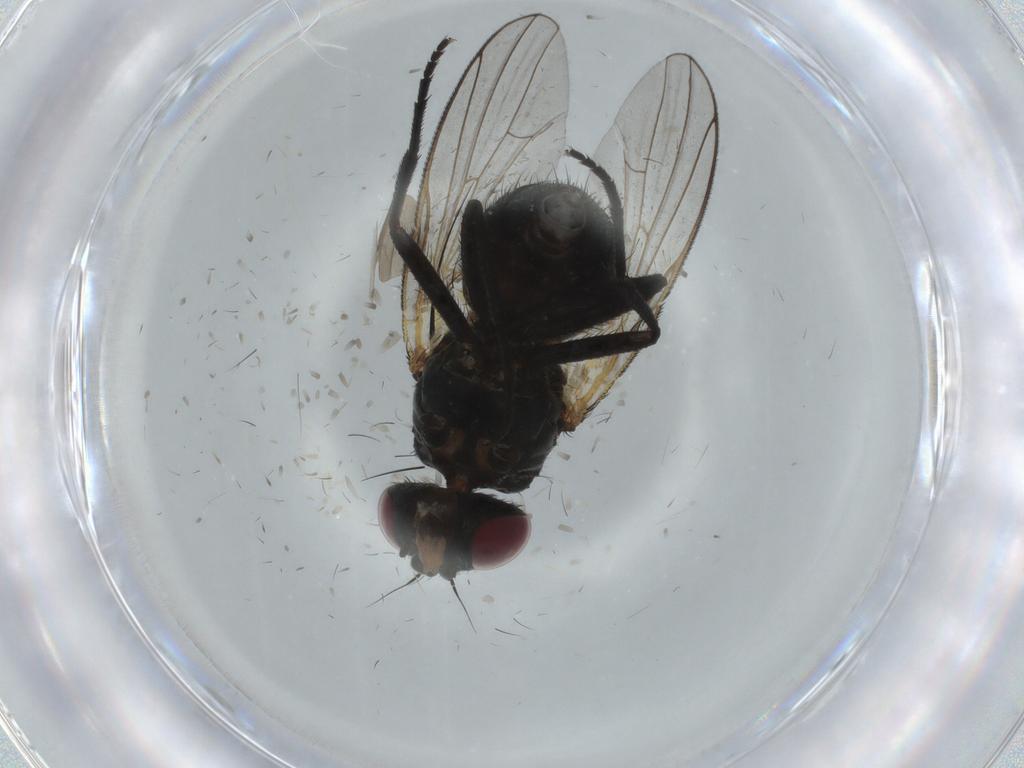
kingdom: Animalia
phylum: Arthropoda
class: Insecta
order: Diptera
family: Fannia
